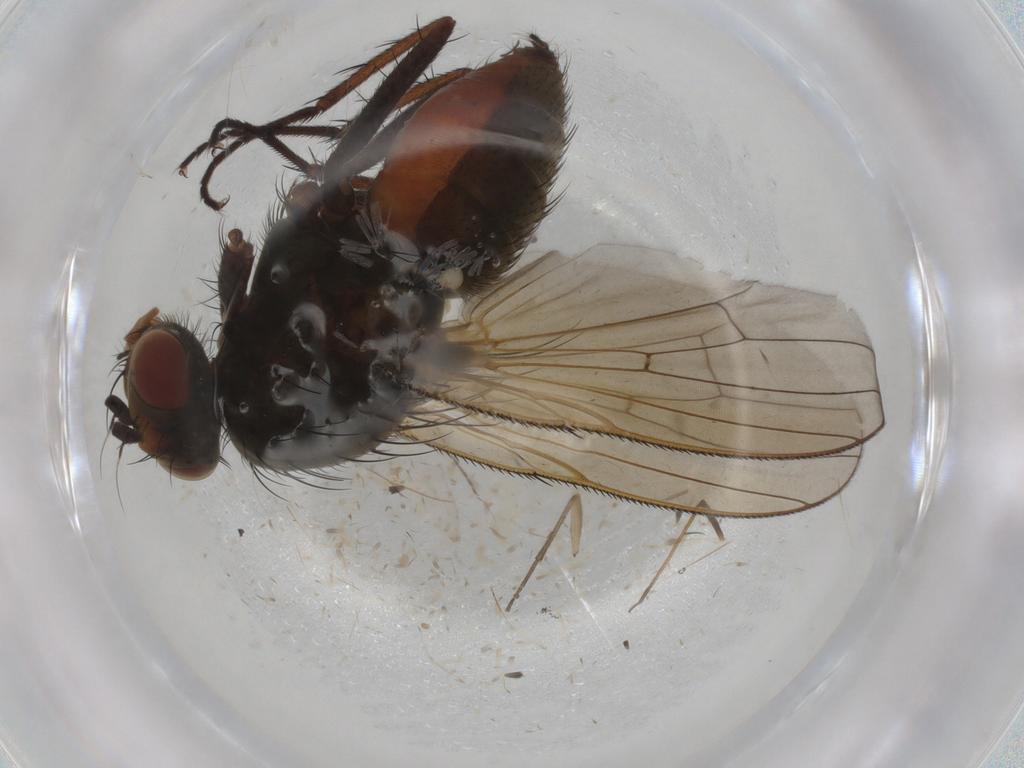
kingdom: Animalia
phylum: Arthropoda
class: Insecta
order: Diptera
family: Anthomyiidae
